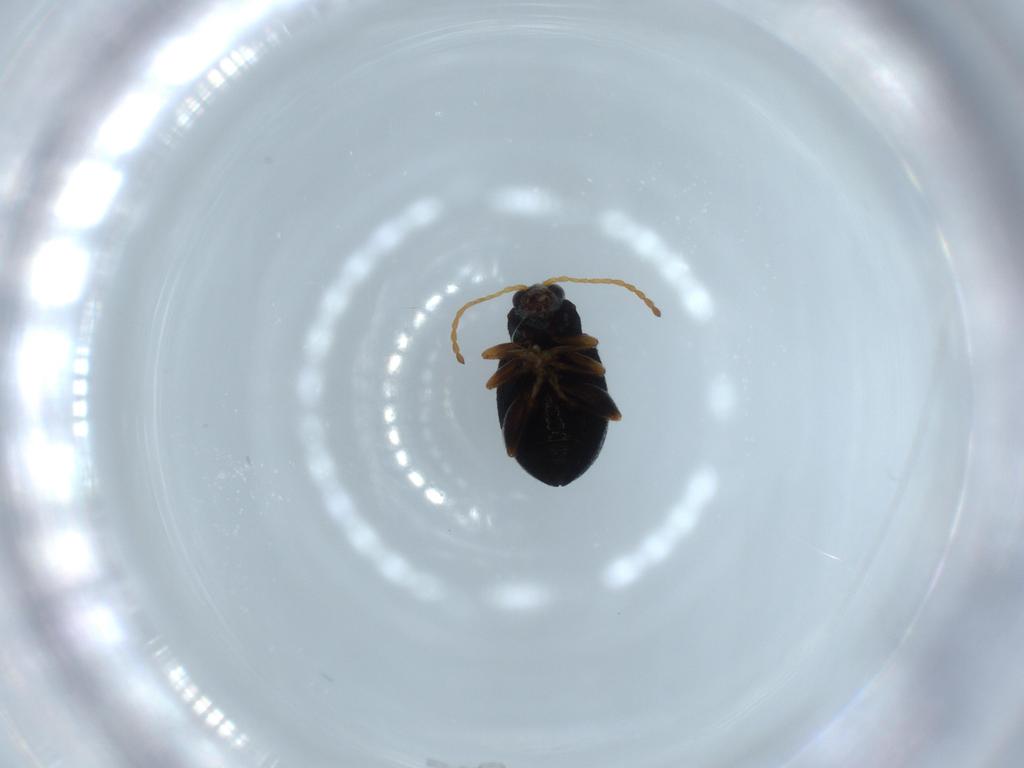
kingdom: Animalia
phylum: Arthropoda
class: Insecta
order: Coleoptera
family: Chrysomelidae
